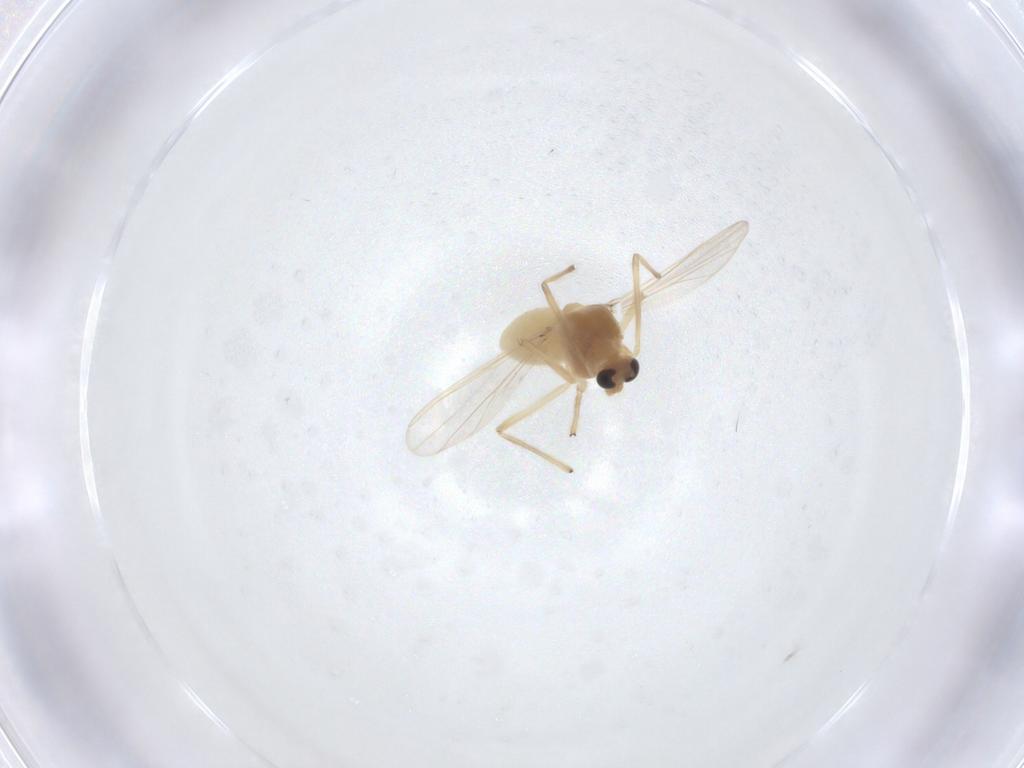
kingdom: Animalia
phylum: Arthropoda
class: Insecta
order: Diptera
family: Chironomidae
